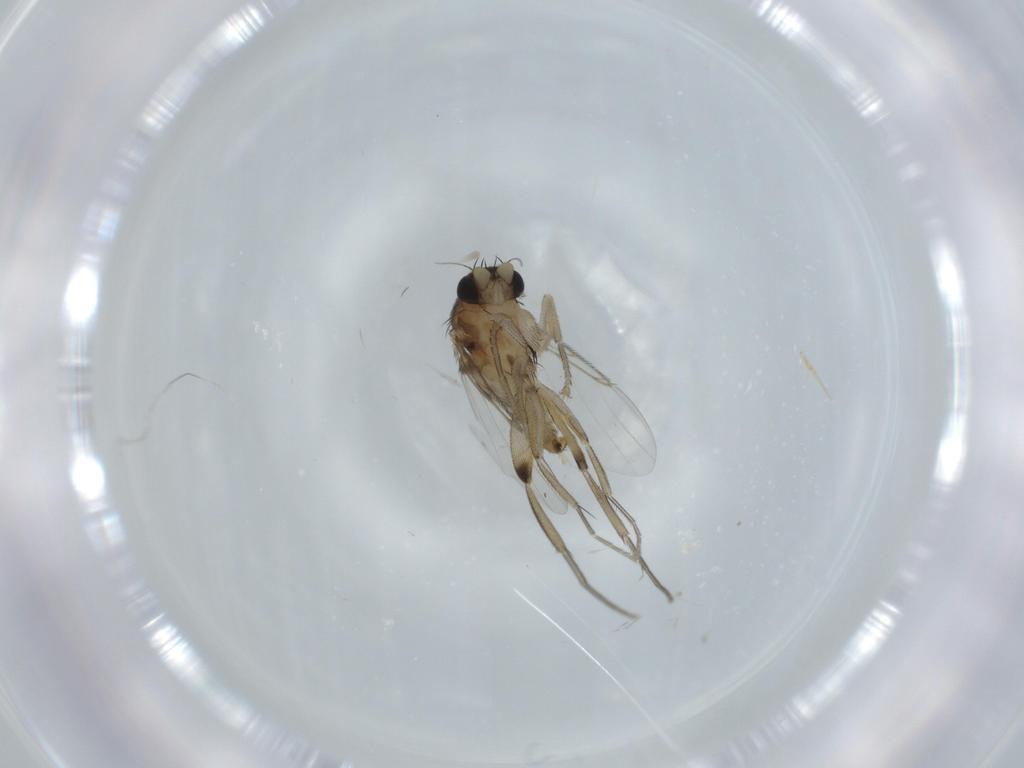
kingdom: Animalia
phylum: Arthropoda
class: Insecta
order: Diptera
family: Phoridae
